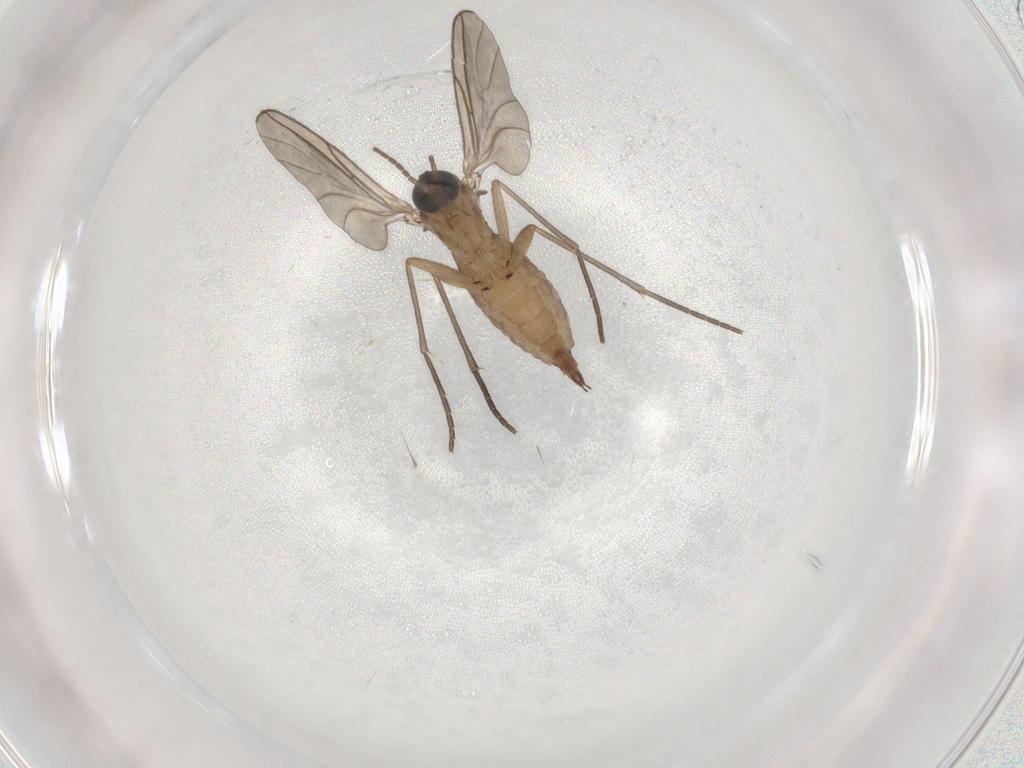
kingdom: Animalia
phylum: Arthropoda
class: Insecta
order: Diptera
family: Sciaridae
